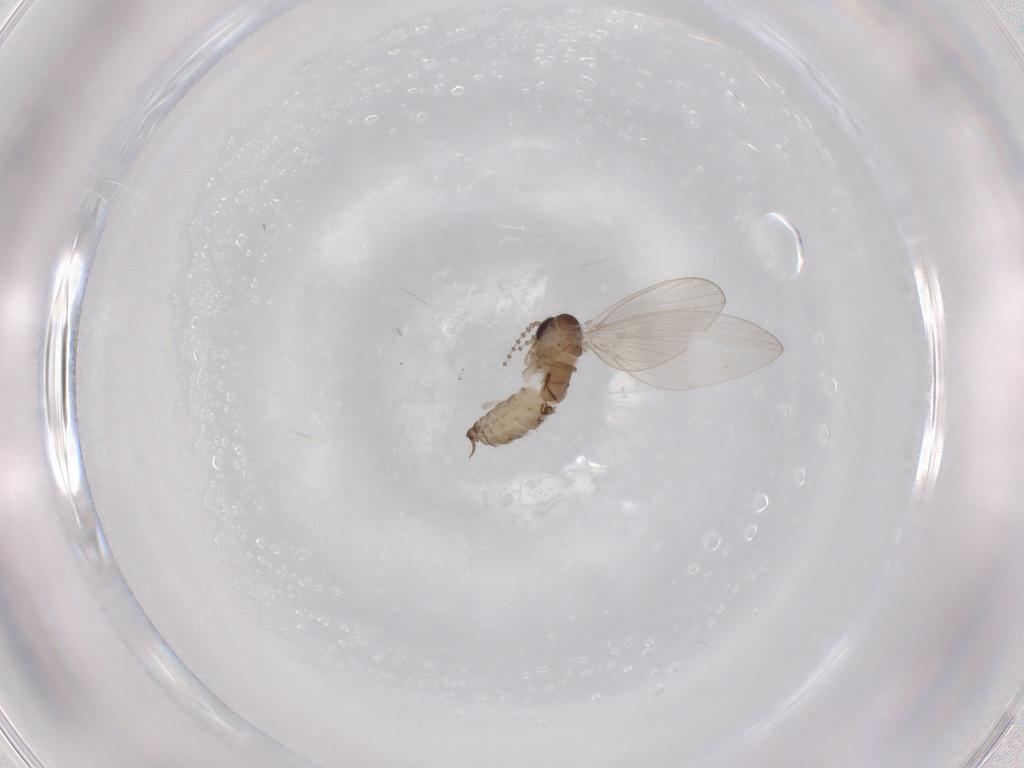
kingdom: Animalia
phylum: Arthropoda
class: Insecta
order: Diptera
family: Psychodidae
